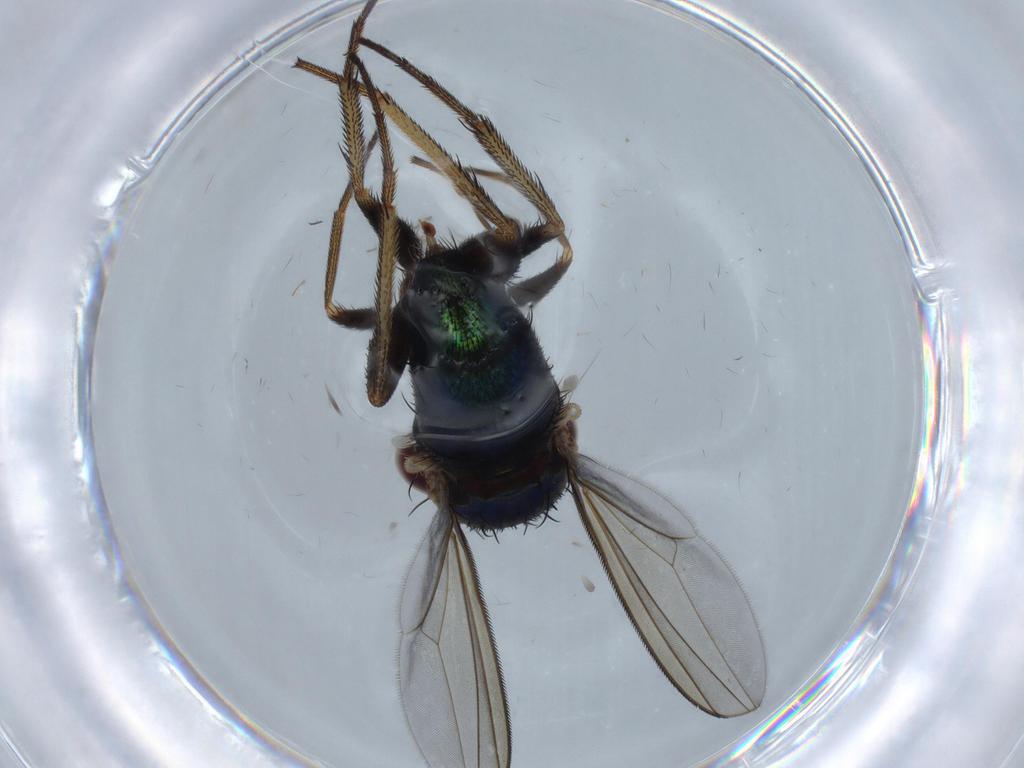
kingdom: Animalia
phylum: Arthropoda
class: Insecta
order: Diptera
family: Dolichopodidae
